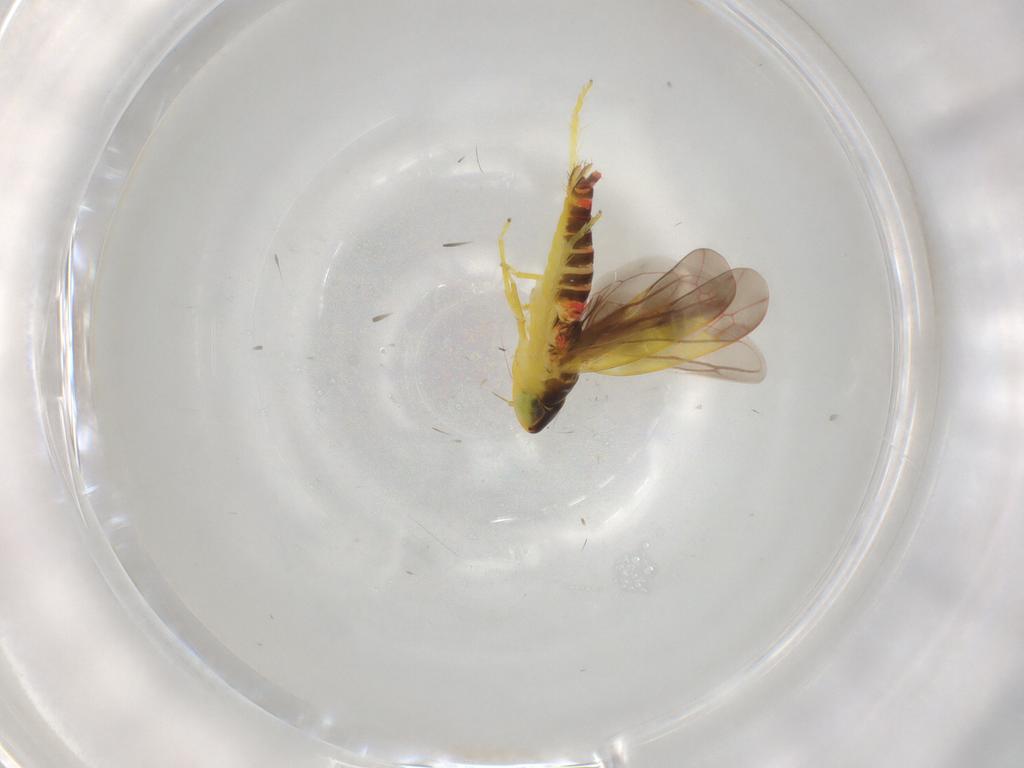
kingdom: Animalia
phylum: Arthropoda
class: Insecta
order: Hemiptera
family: Cicadellidae
